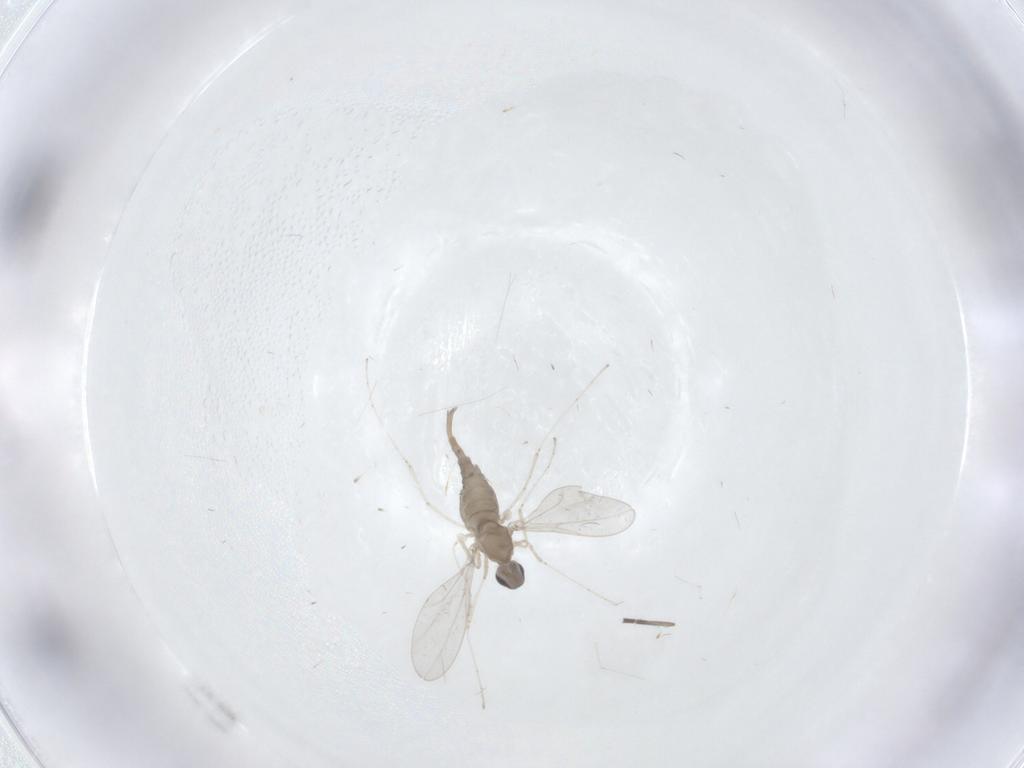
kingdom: Animalia
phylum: Arthropoda
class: Insecta
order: Diptera
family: Cecidomyiidae
